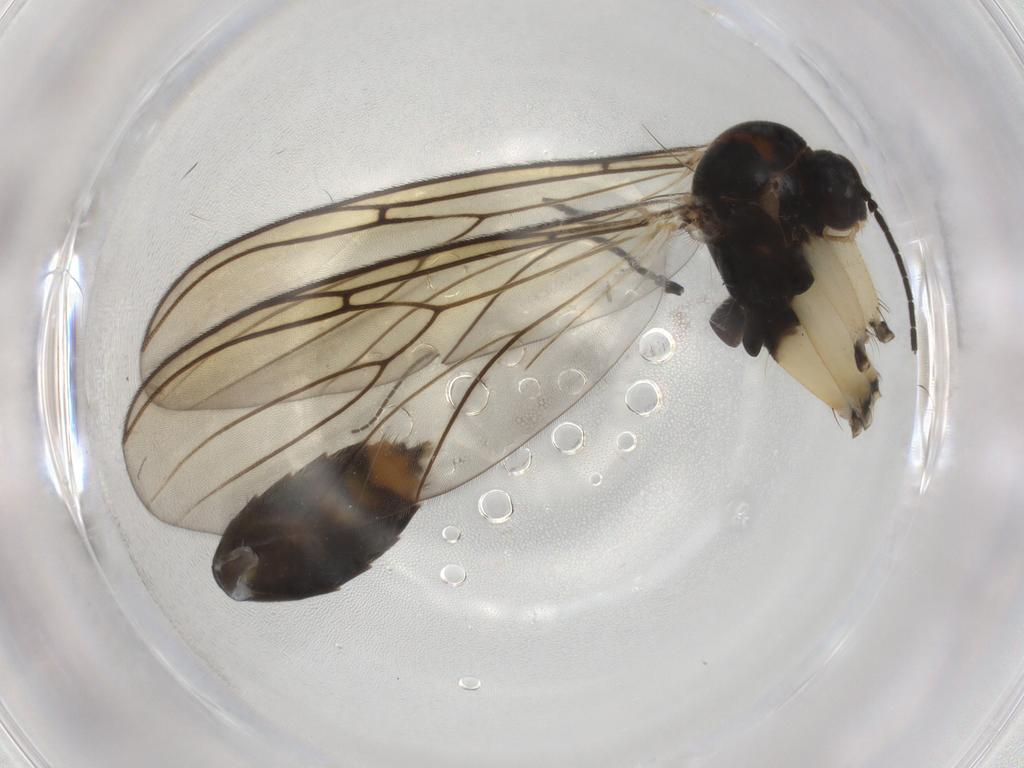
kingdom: Animalia
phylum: Arthropoda
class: Insecta
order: Diptera
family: Mycetophilidae
